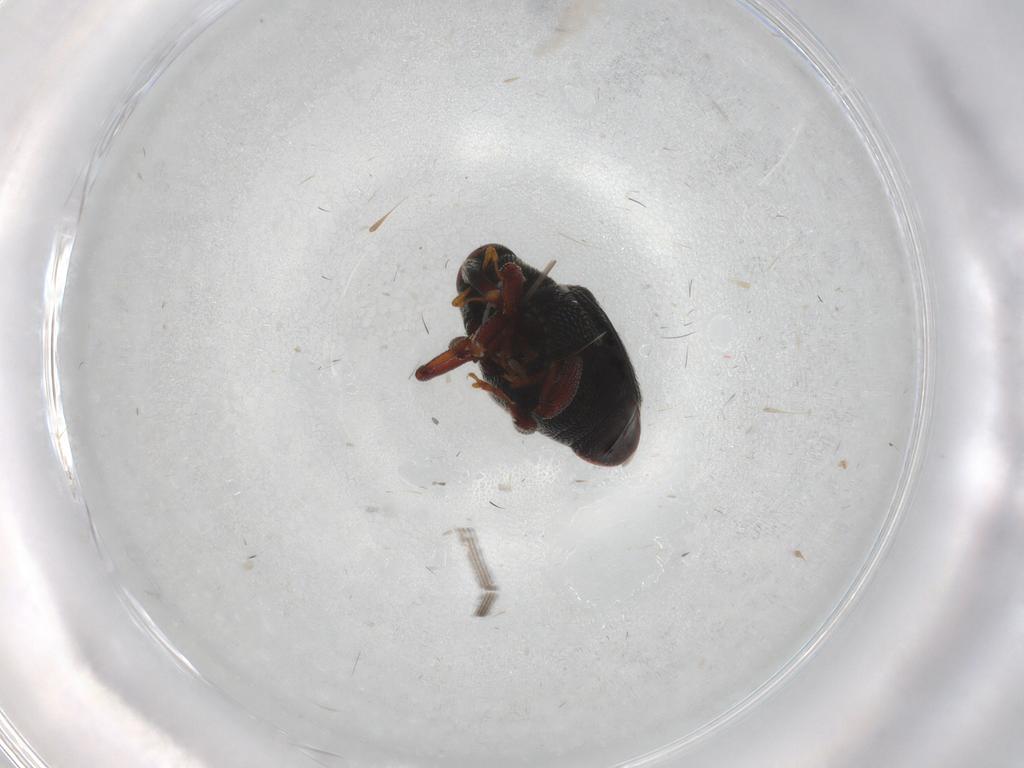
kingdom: Animalia
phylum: Arthropoda
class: Insecta
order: Coleoptera
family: Curculionidae
